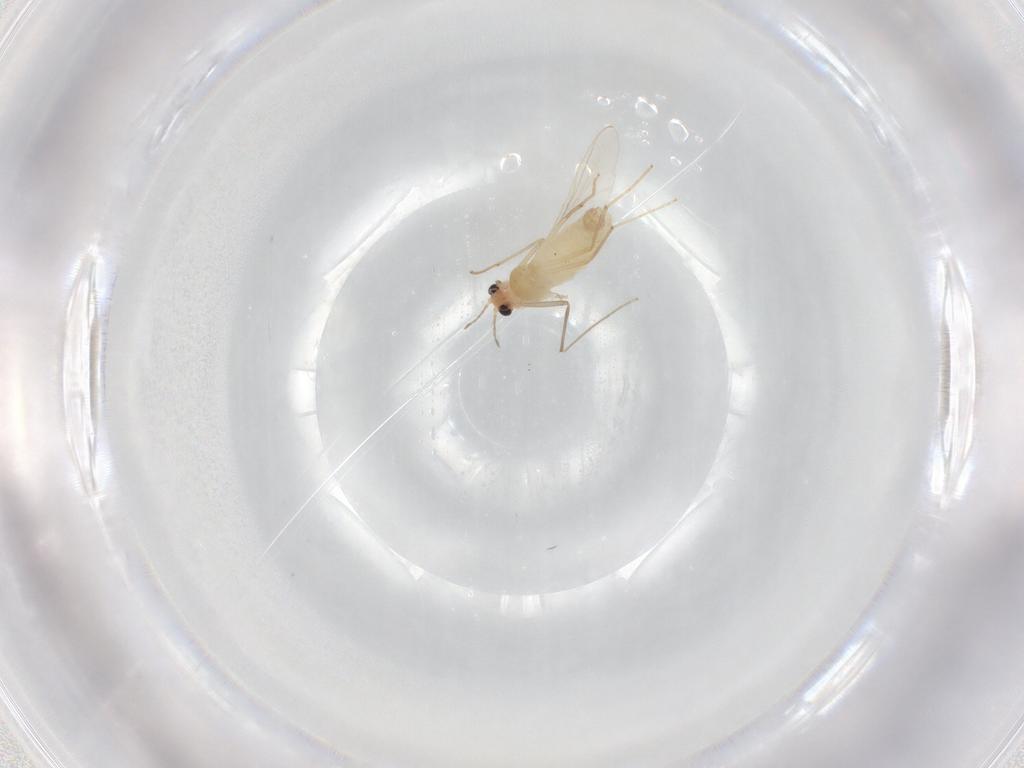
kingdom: Animalia
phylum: Arthropoda
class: Insecta
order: Diptera
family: Chironomidae
